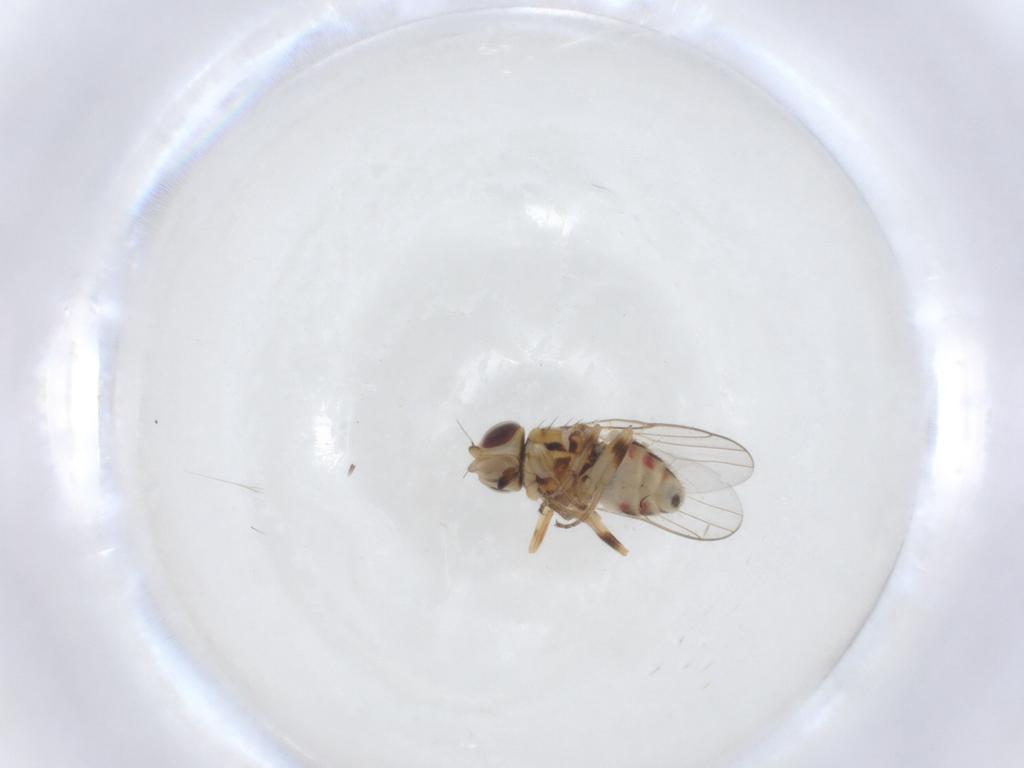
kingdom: Animalia
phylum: Arthropoda
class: Insecta
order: Diptera
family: Chloropidae
